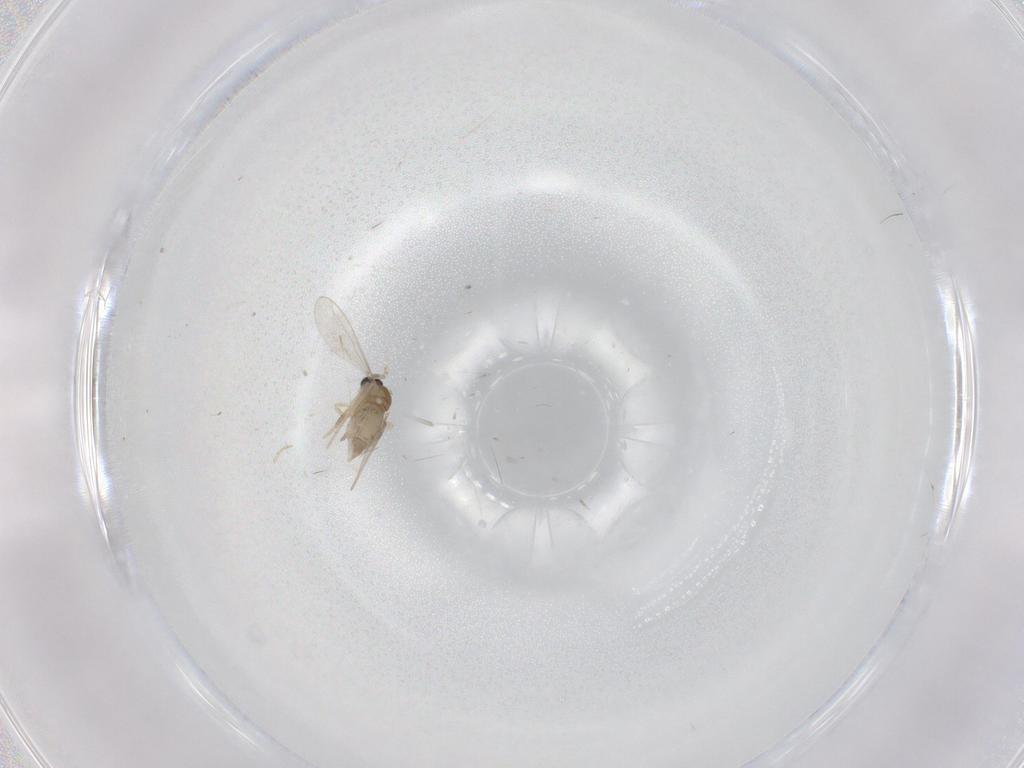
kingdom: Animalia
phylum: Arthropoda
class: Insecta
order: Diptera
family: Cecidomyiidae
